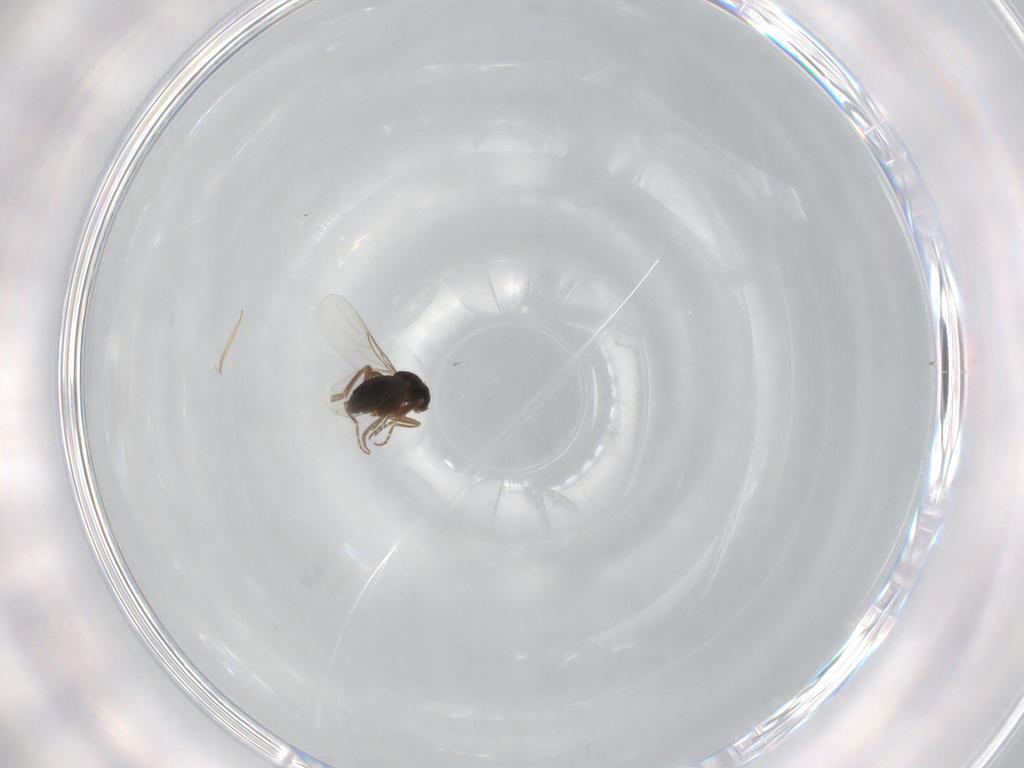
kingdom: Animalia
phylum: Arthropoda
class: Insecta
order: Diptera
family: Phoridae
